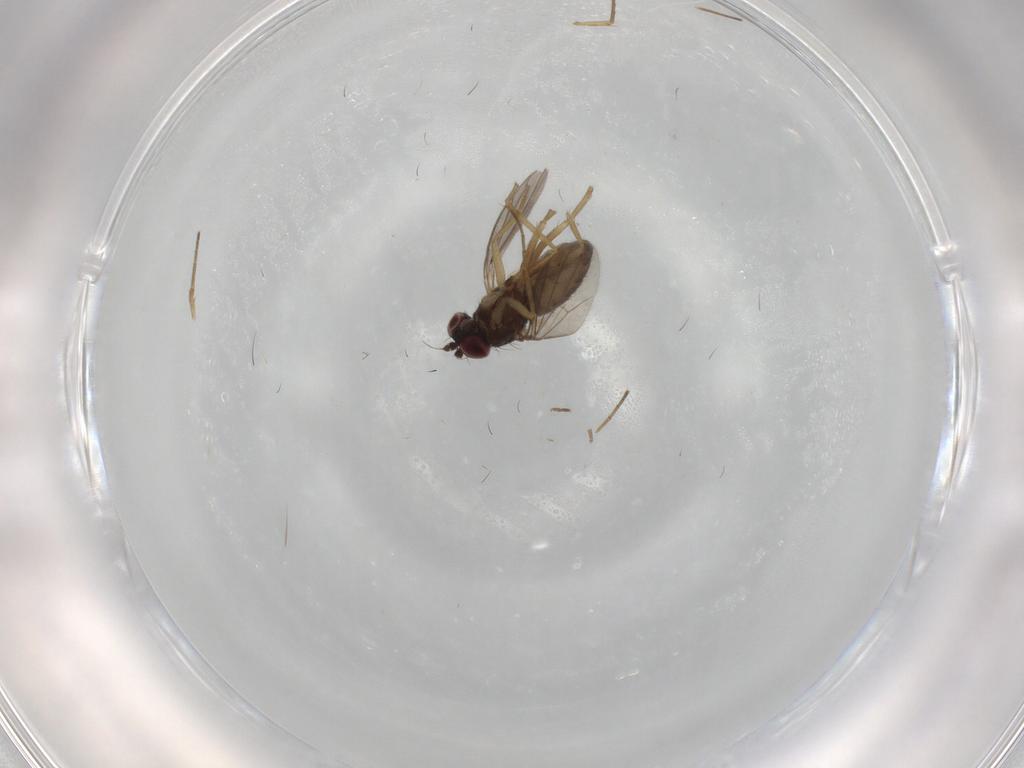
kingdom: Animalia
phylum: Arthropoda
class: Insecta
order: Diptera
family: Dolichopodidae
